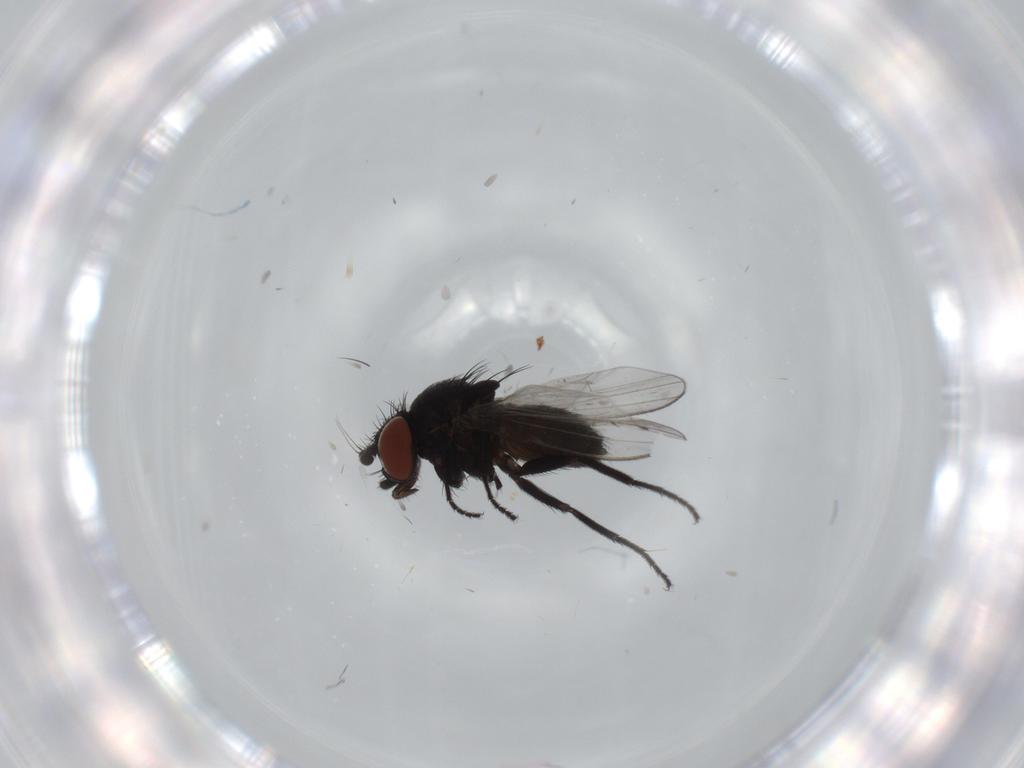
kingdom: Animalia
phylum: Arthropoda
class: Insecta
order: Diptera
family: Milichiidae
